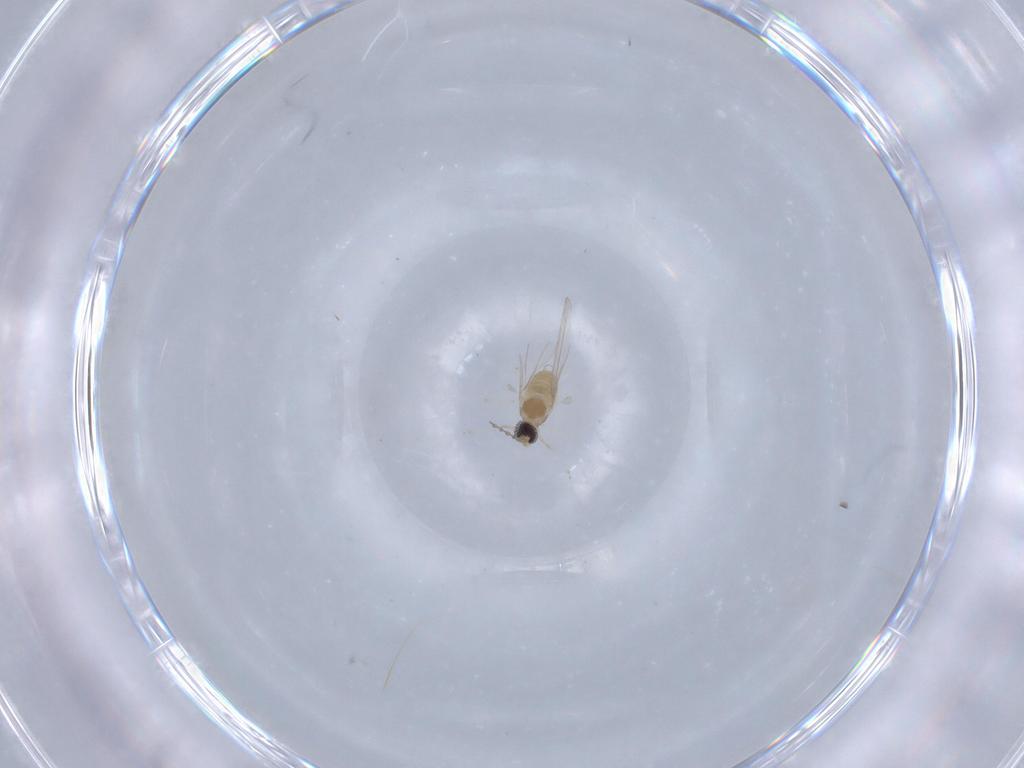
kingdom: Animalia
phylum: Arthropoda
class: Insecta
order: Diptera
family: Cecidomyiidae
